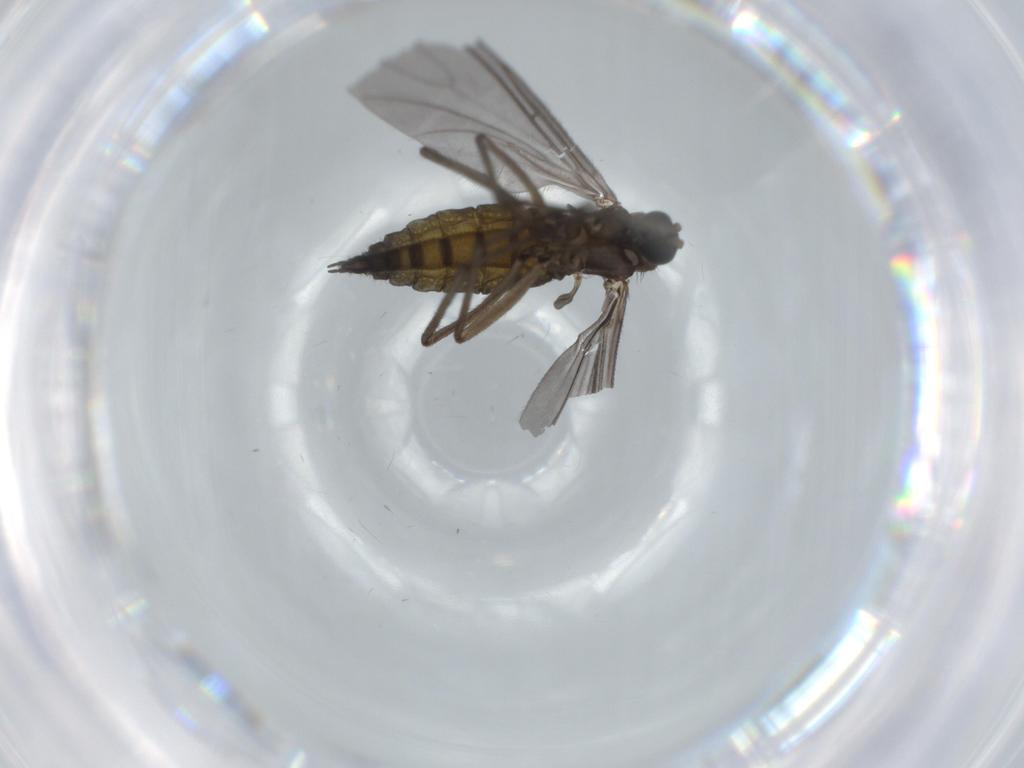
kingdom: Animalia
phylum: Arthropoda
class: Insecta
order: Diptera
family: Sciaridae
